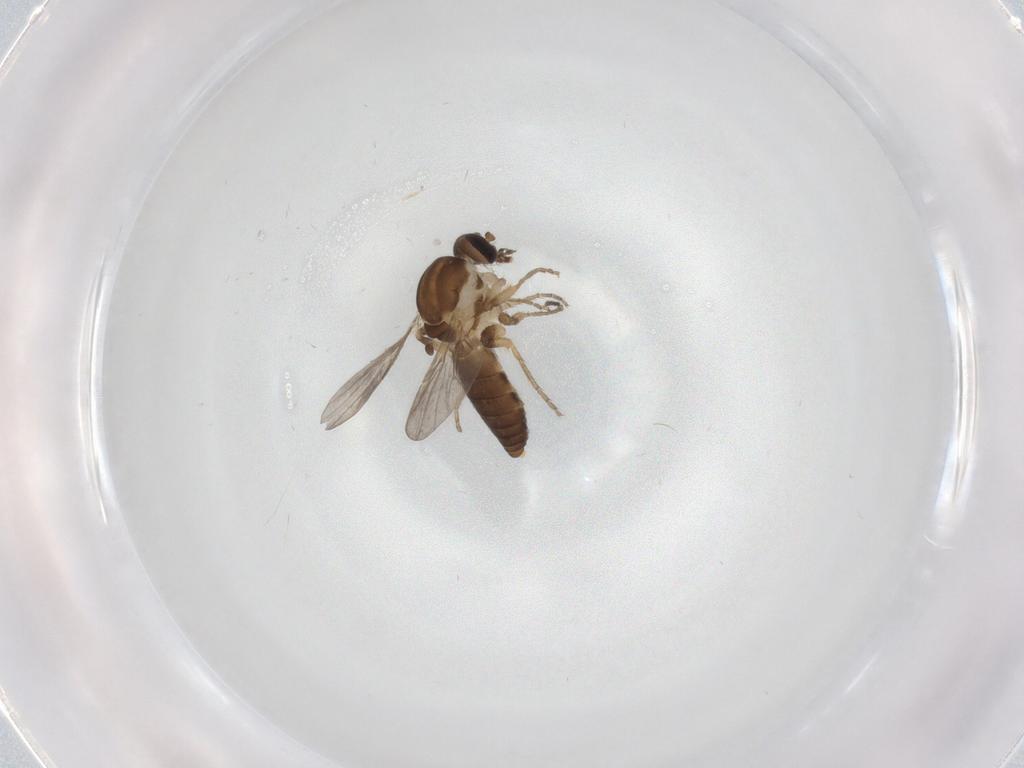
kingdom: Animalia
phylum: Arthropoda
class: Insecta
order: Diptera
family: Ceratopogonidae
